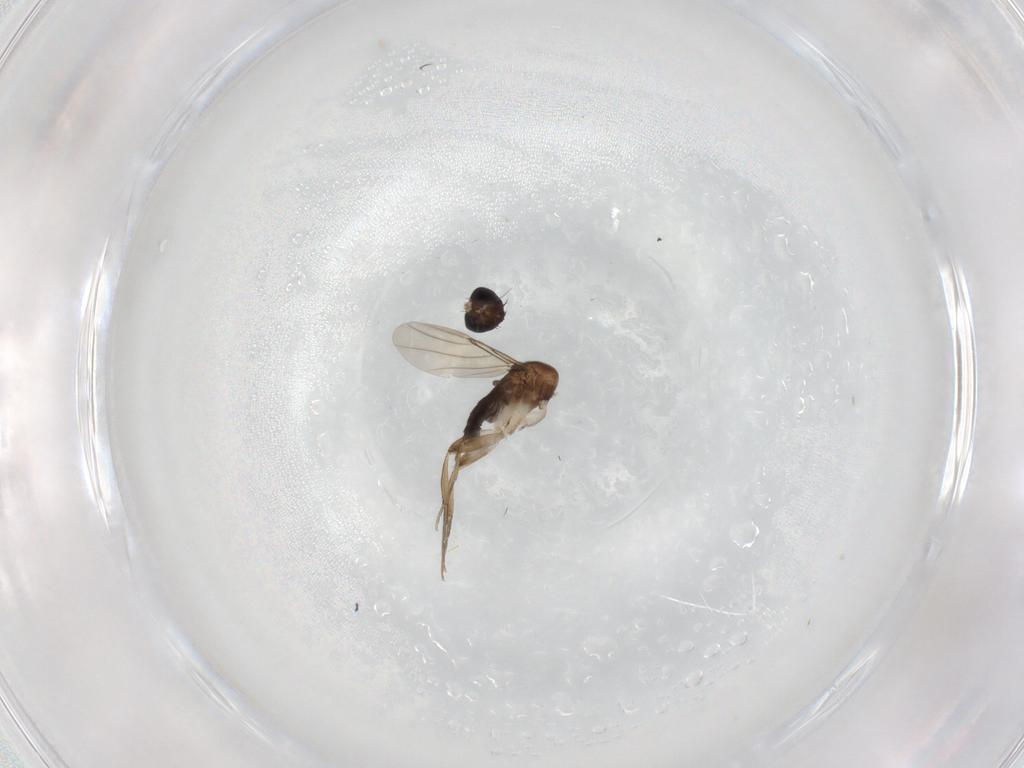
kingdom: Animalia
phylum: Arthropoda
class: Insecta
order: Diptera
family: Phoridae
